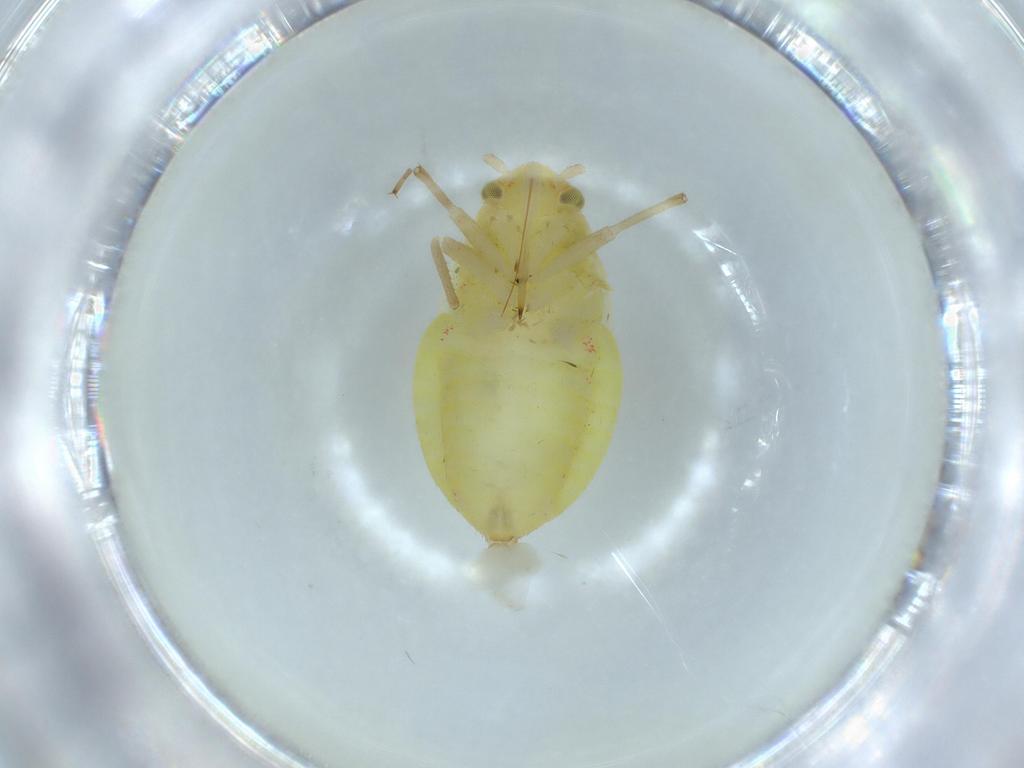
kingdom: Animalia
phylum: Arthropoda
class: Insecta
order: Hemiptera
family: Miridae
